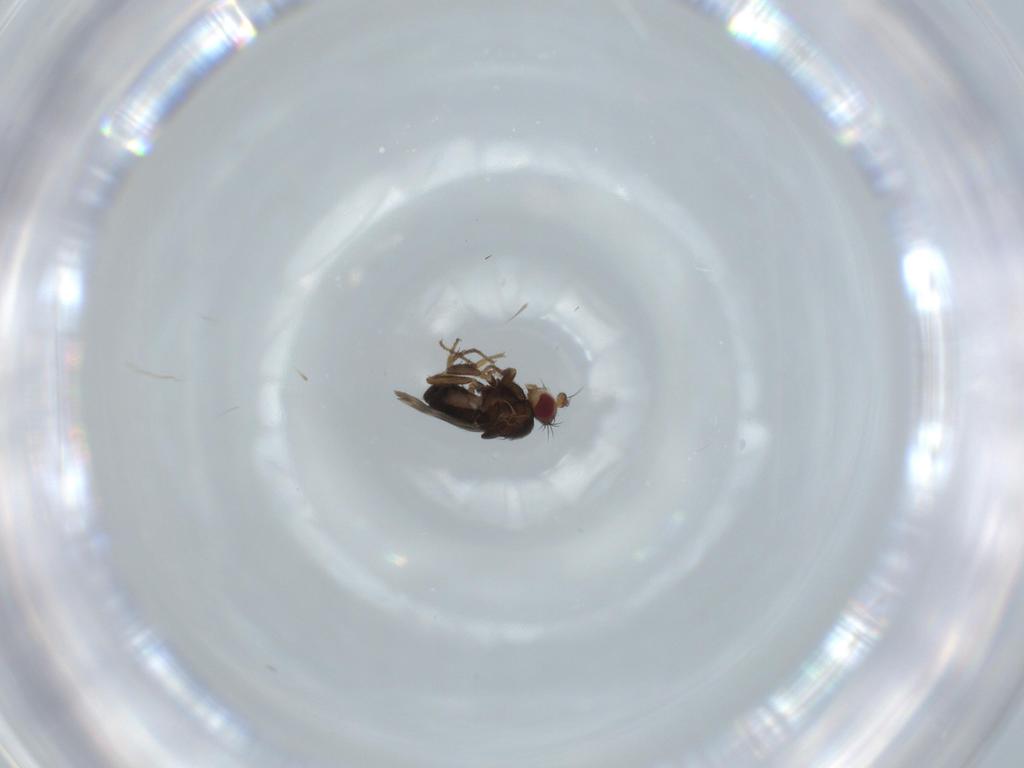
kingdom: Animalia
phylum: Arthropoda
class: Insecta
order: Diptera
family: Sphaeroceridae
